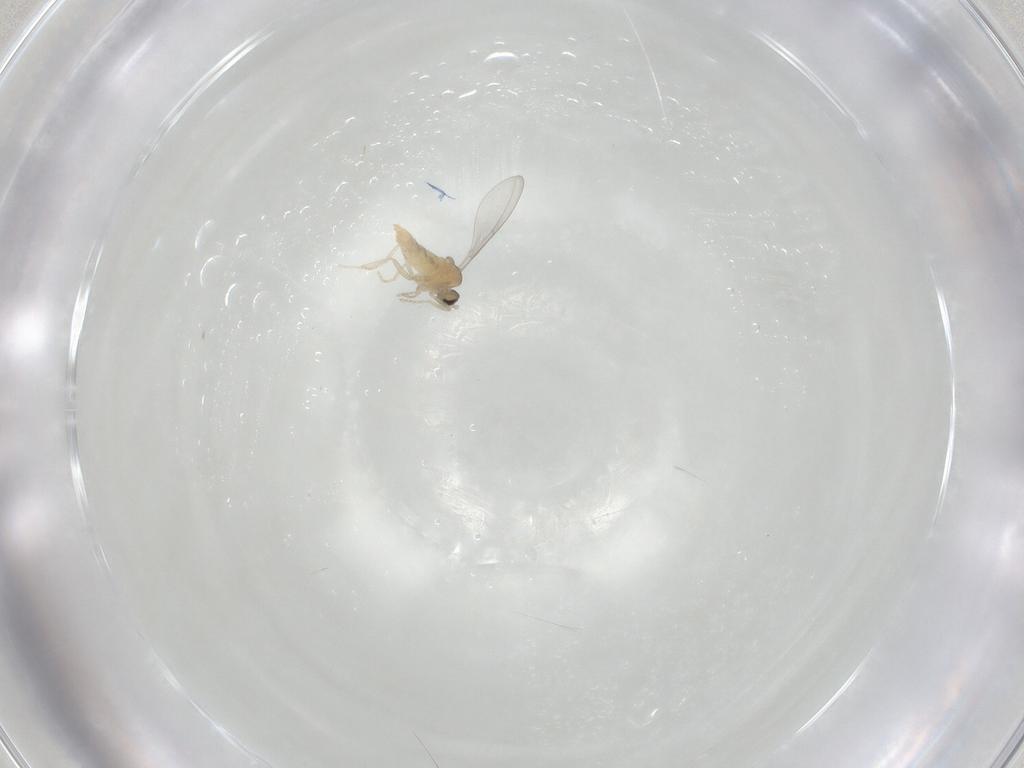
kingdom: Animalia
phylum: Arthropoda
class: Insecta
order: Diptera
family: Cecidomyiidae
